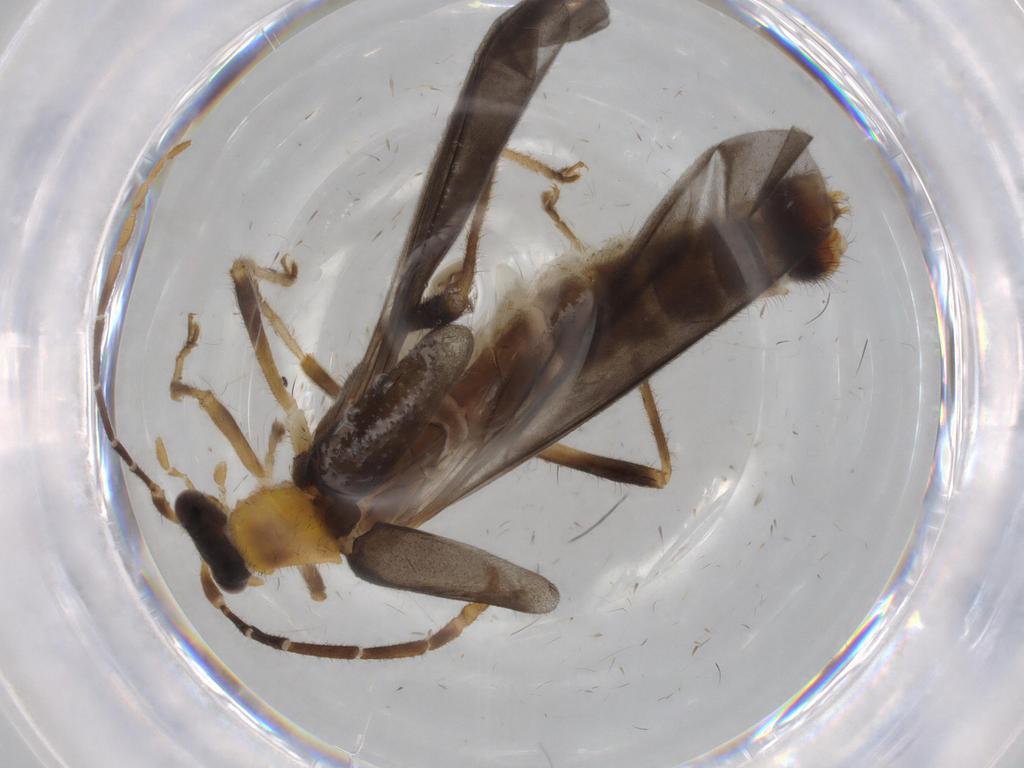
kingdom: Animalia
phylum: Arthropoda
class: Insecta
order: Coleoptera
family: Cantharidae
